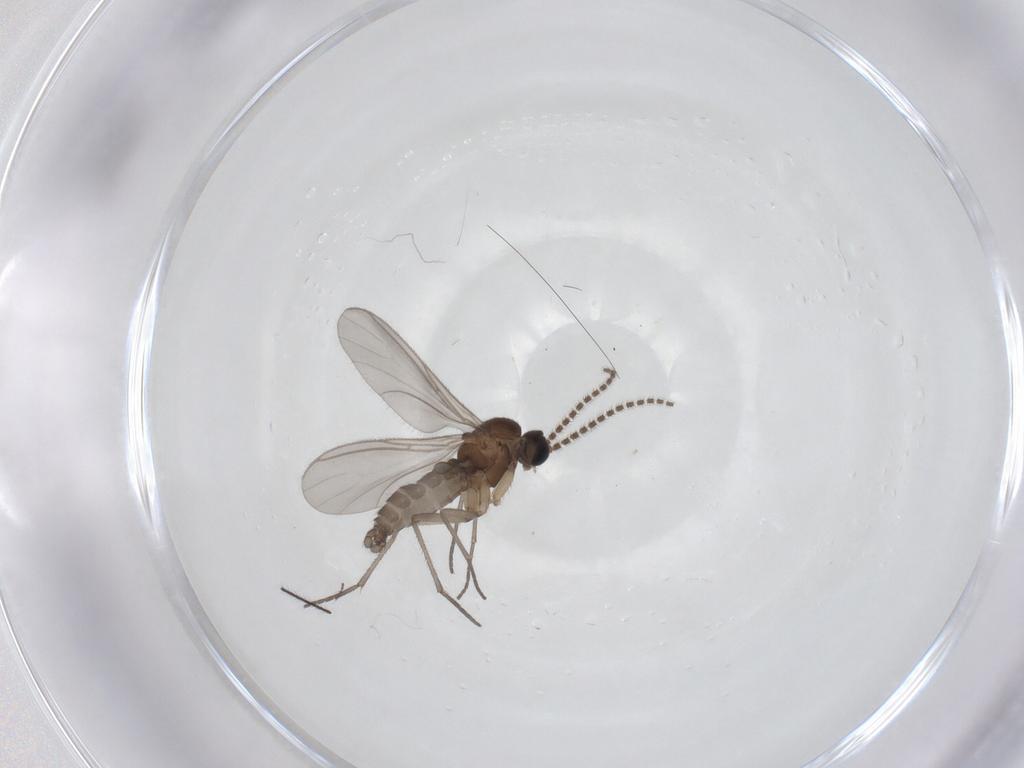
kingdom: Animalia
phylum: Arthropoda
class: Insecta
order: Diptera
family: Sciaridae
